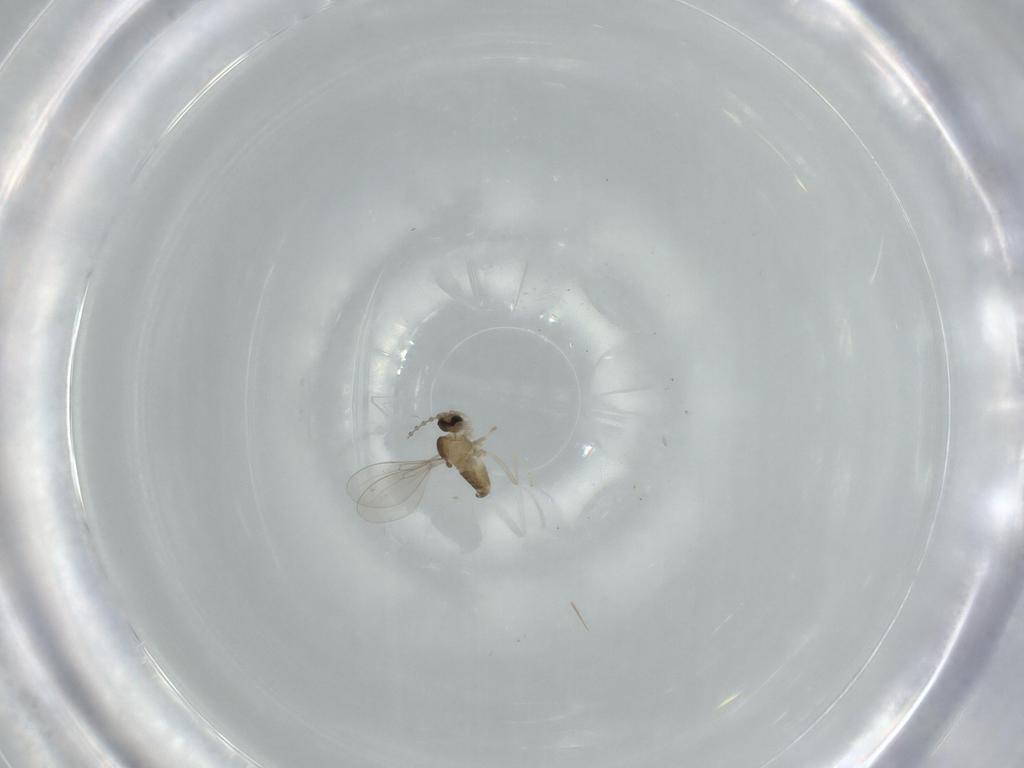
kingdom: Animalia
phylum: Arthropoda
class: Insecta
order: Diptera
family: Cecidomyiidae
